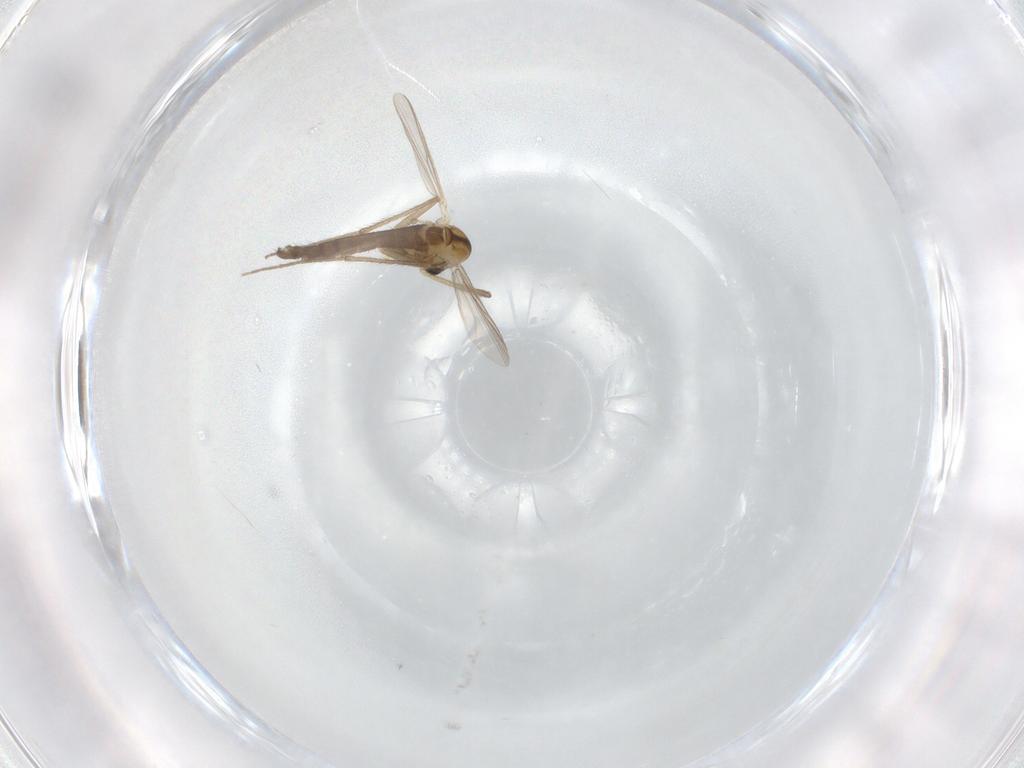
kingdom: Animalia
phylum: Arthropoda
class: Insecta
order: Diptera
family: Chironomidae
